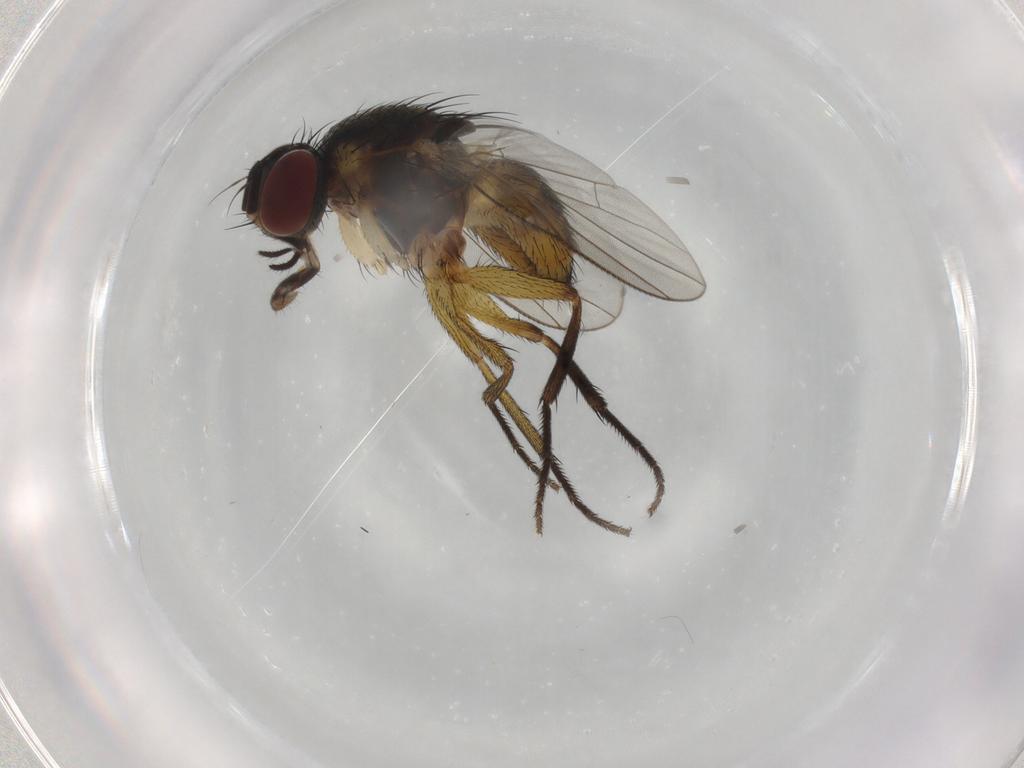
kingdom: Animalia
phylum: Arthropoda
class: Insecta
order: Diptera
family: Muscidae
